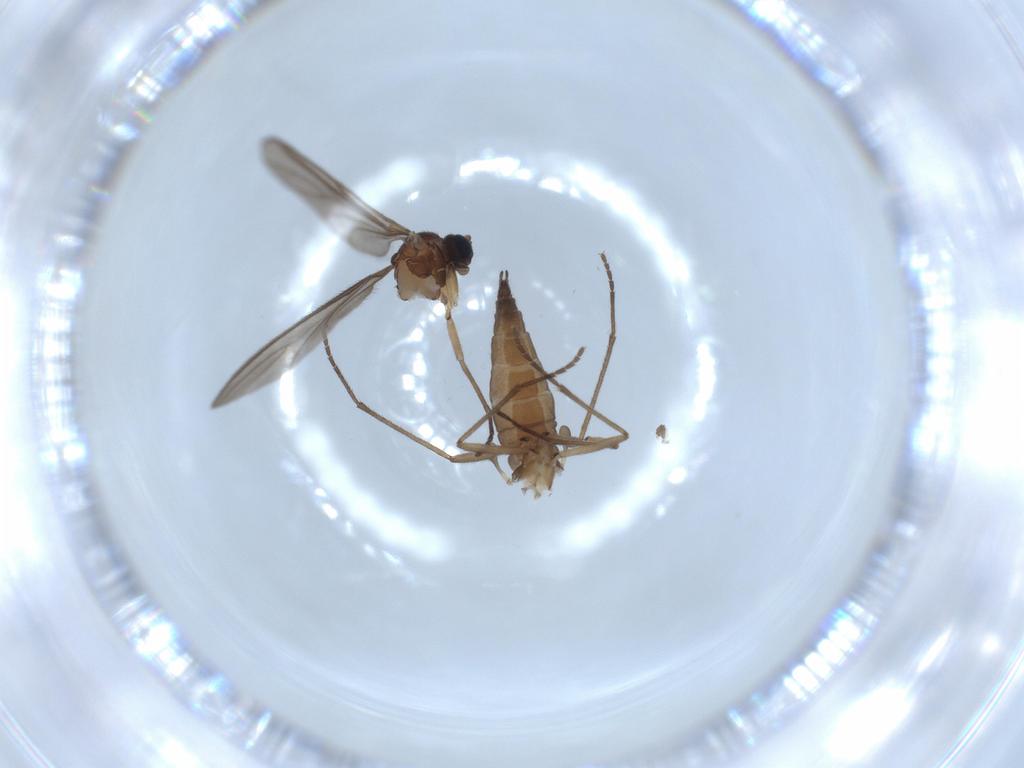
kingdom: Animalia
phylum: Arthropoda
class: Insecta
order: Diptera
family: Sciaridae
